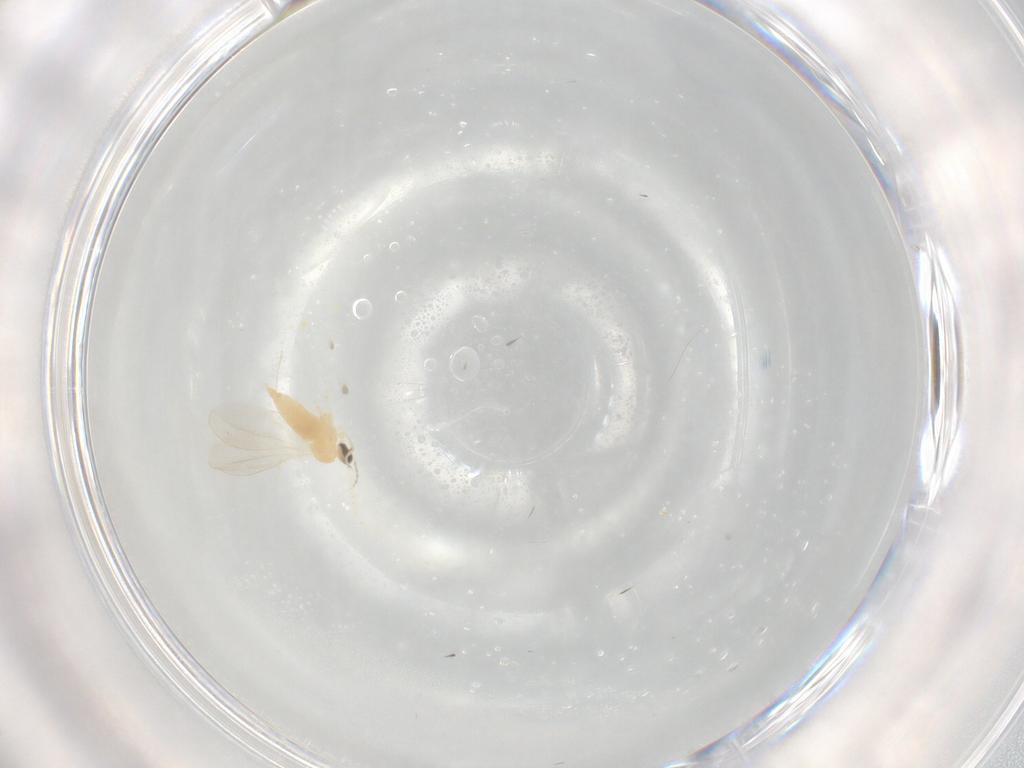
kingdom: Animalia
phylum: Arthropoda
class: Insecta
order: Diptera
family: Cecidomyiidae
